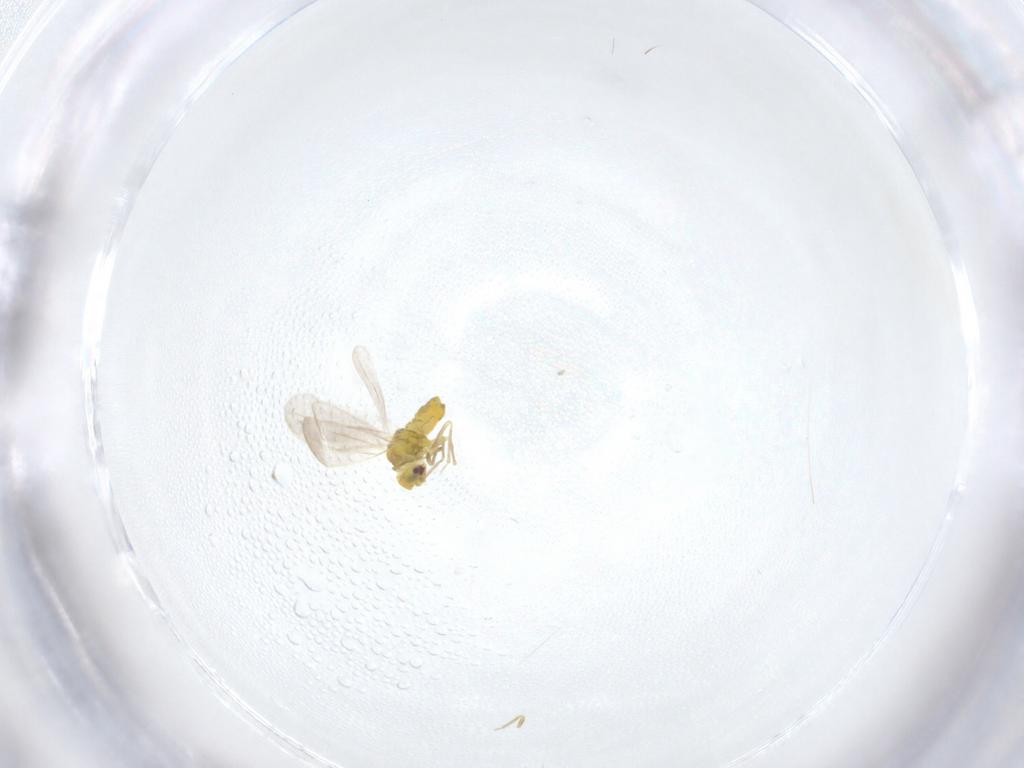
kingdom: Animalia
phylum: Arthropoda
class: Insecta
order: Hemiptera
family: Aleyrodidae
